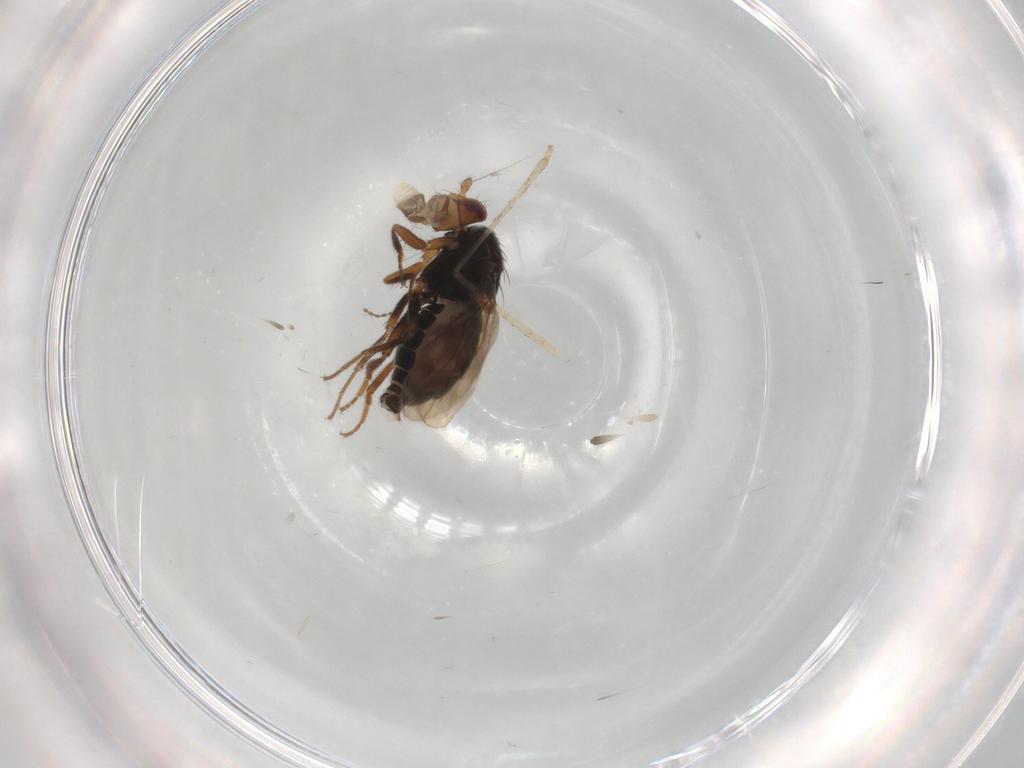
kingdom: Animalia
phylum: Arthropoda
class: Insecta
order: Diptera
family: Sphaeroceridae
